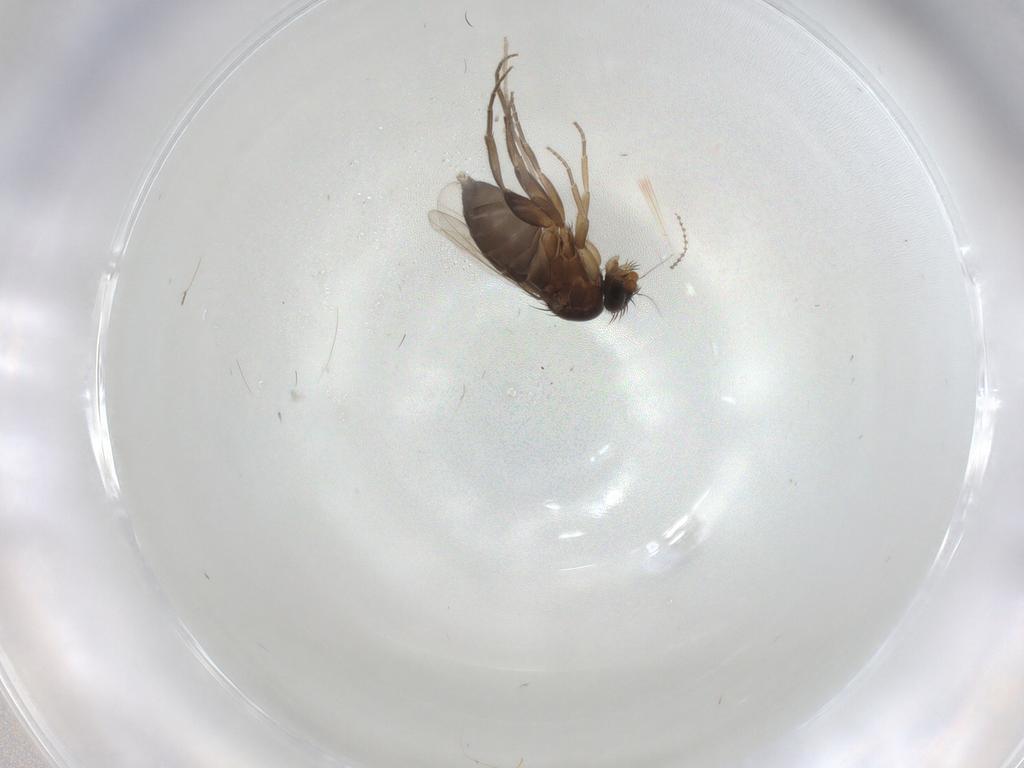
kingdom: Animalia
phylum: Arthropoda
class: Insecta
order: Diptera
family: Phoridae
